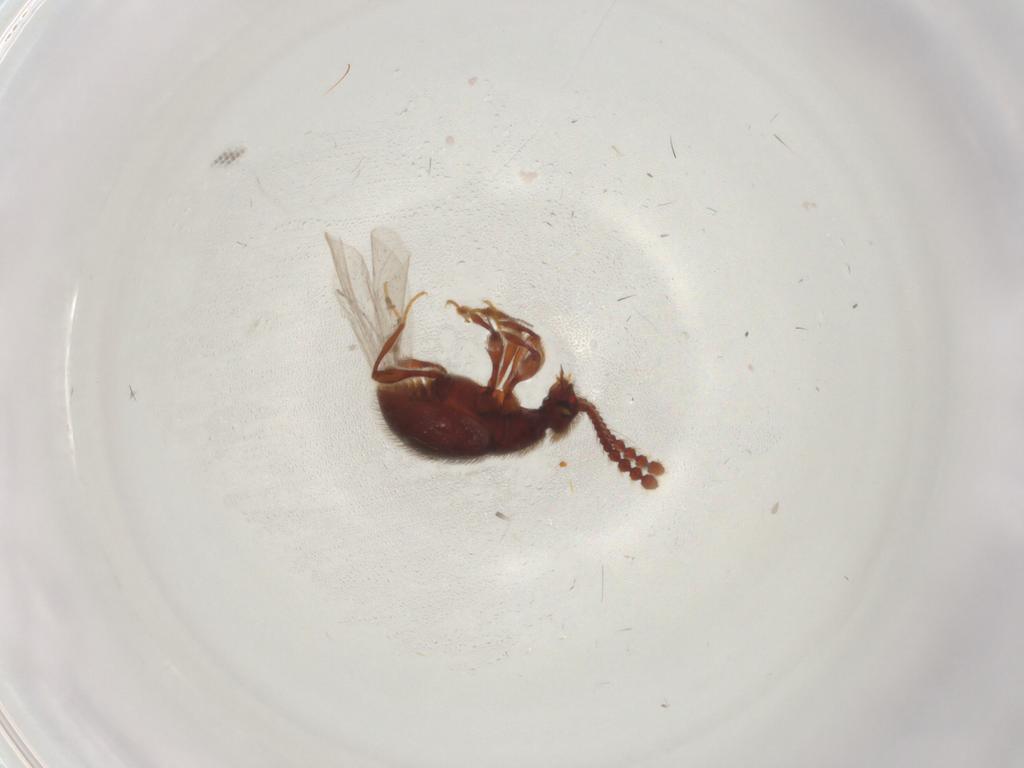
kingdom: Animalia
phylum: Arthropoda
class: Insecta
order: Coleoptera
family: Staphylinidae
